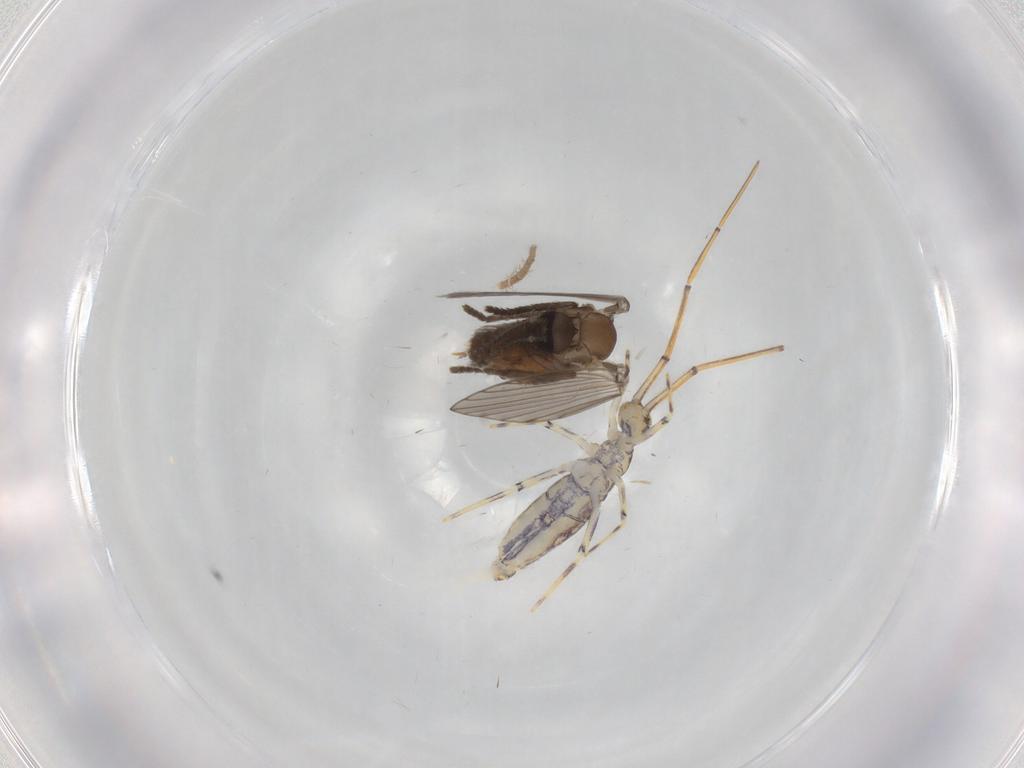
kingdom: Animalia
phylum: Arthropoda
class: Insecta
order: Diptera
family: Psychodidae
